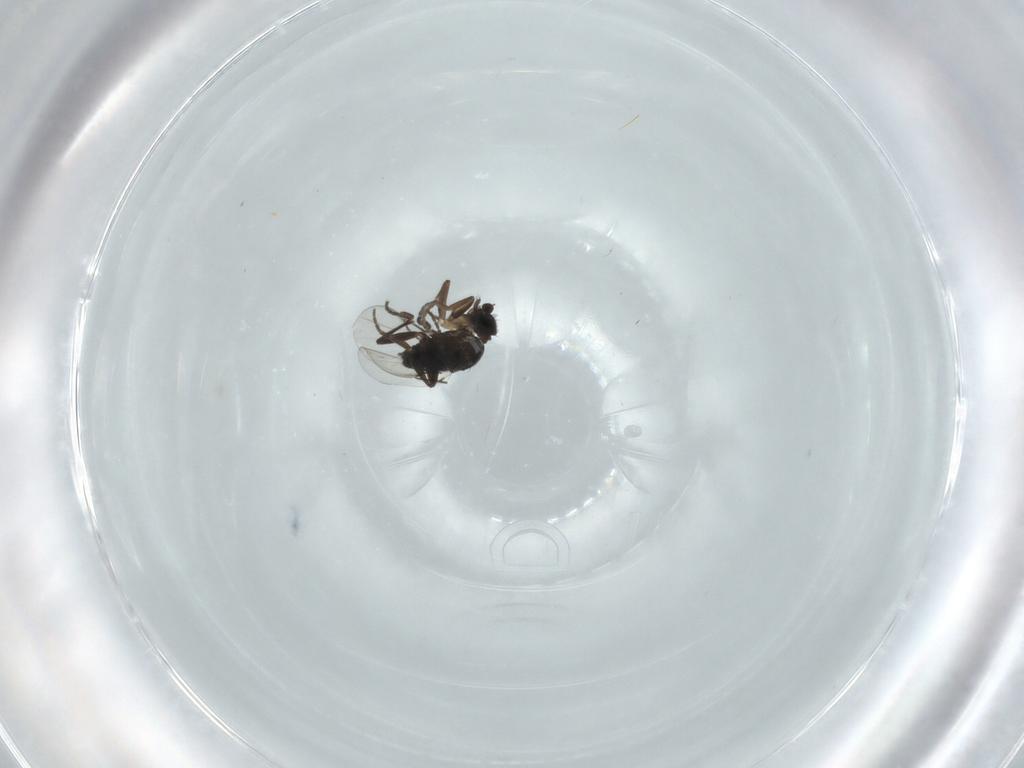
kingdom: Animalia
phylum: Arthropoda
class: Insecta
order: Diptera
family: Phoridae
